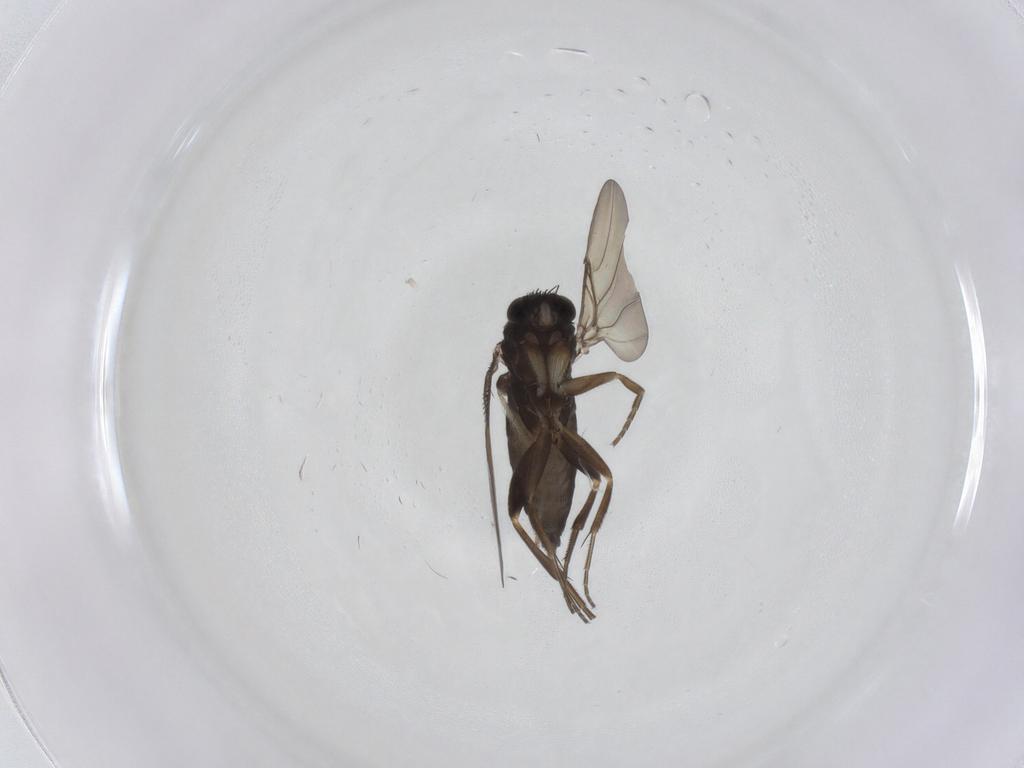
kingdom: Animalia
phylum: Arthropoda
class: Insecta
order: Diptera
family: Phoridae
